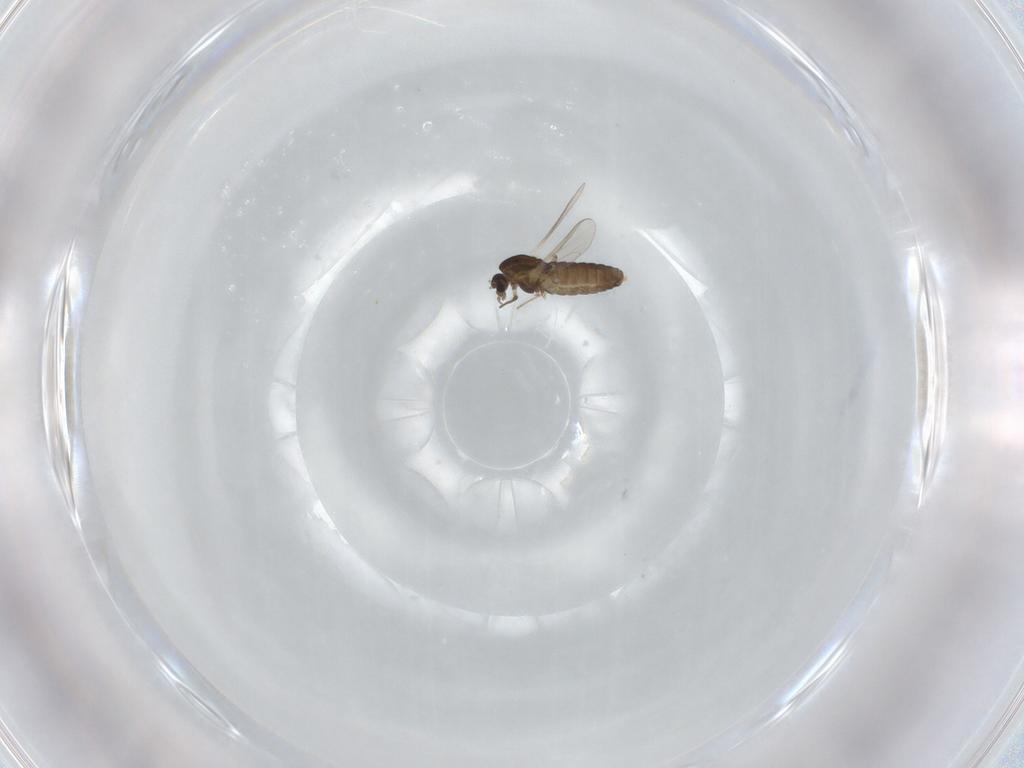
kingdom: Animalia
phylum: Arthropoda
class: Insecta
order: Diptera
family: Chironomidae
